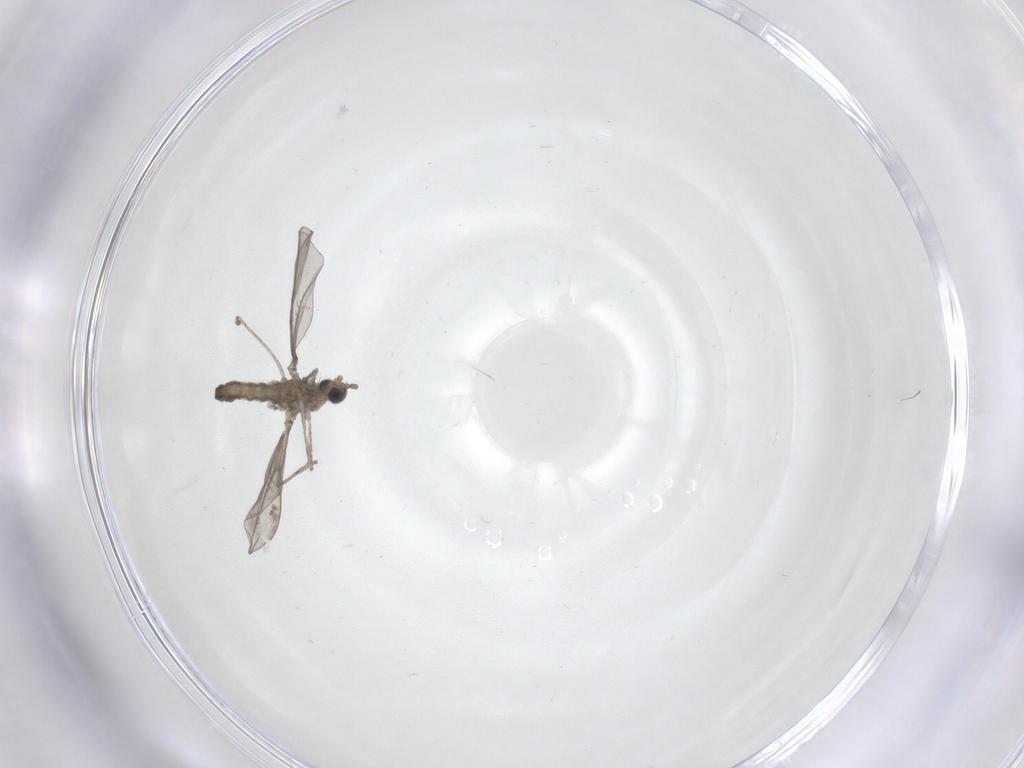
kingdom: Animalia
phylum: Arthropoda
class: Insecta
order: Diptera
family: Cecidomyiidae
